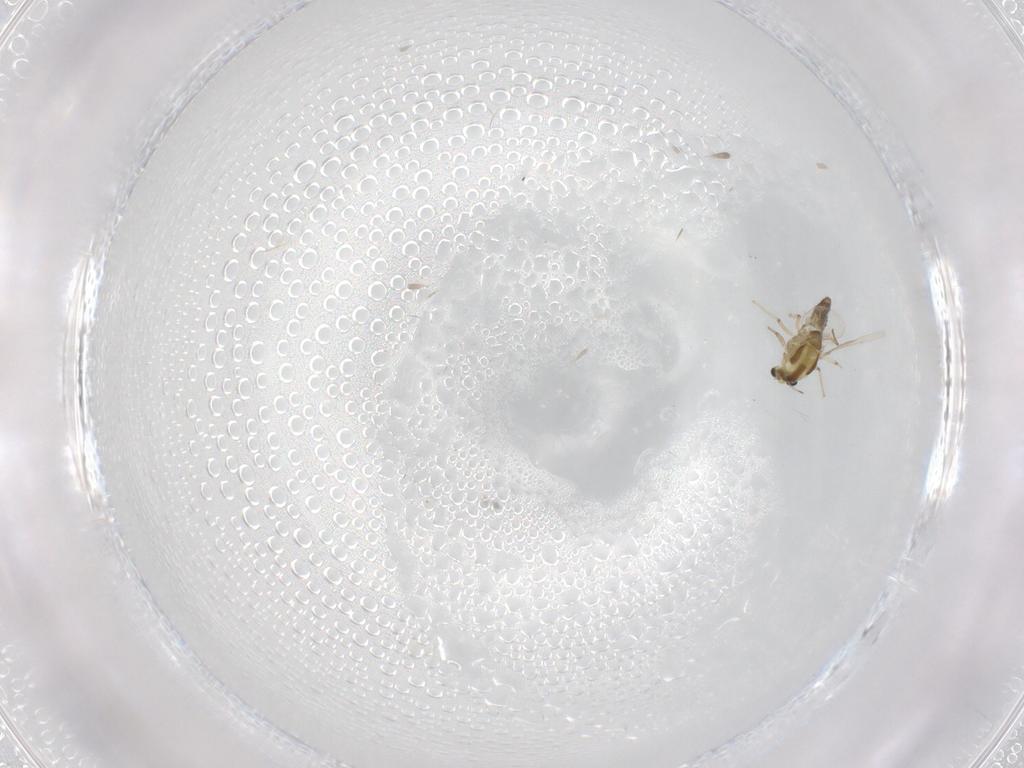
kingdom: Animalia
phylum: Arthropoda
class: Insecta
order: Diptera
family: Chironomidae
